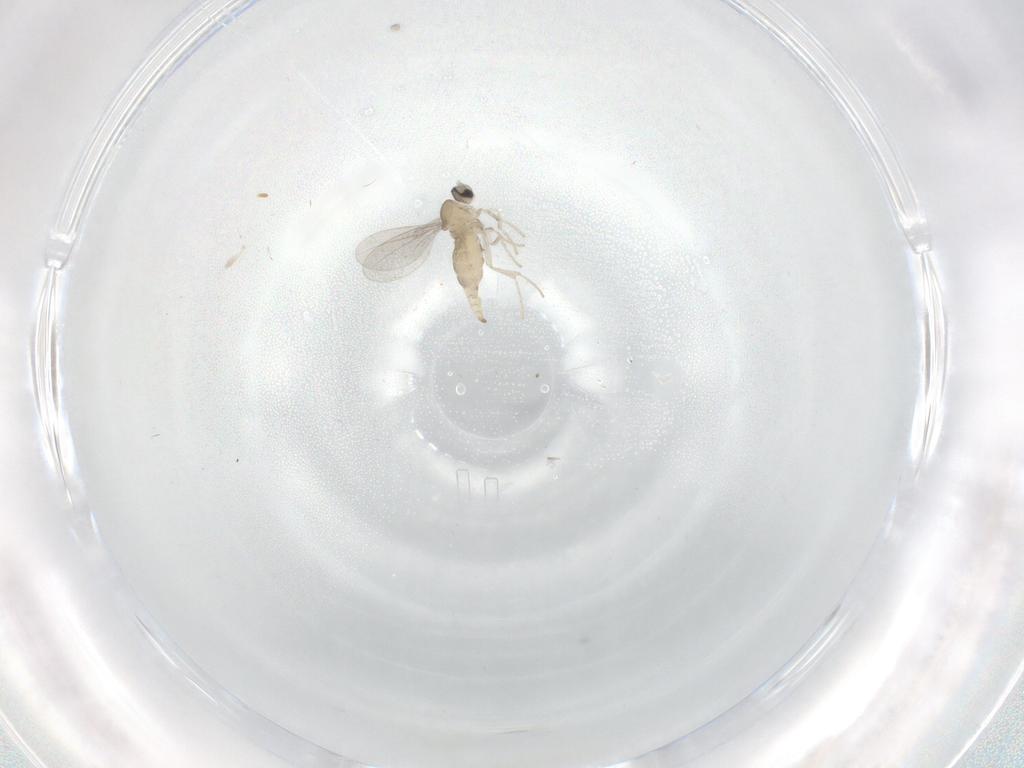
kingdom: Animalia
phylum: Arthropoda
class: Insecta
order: Diptera
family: Cecidomyiidae
